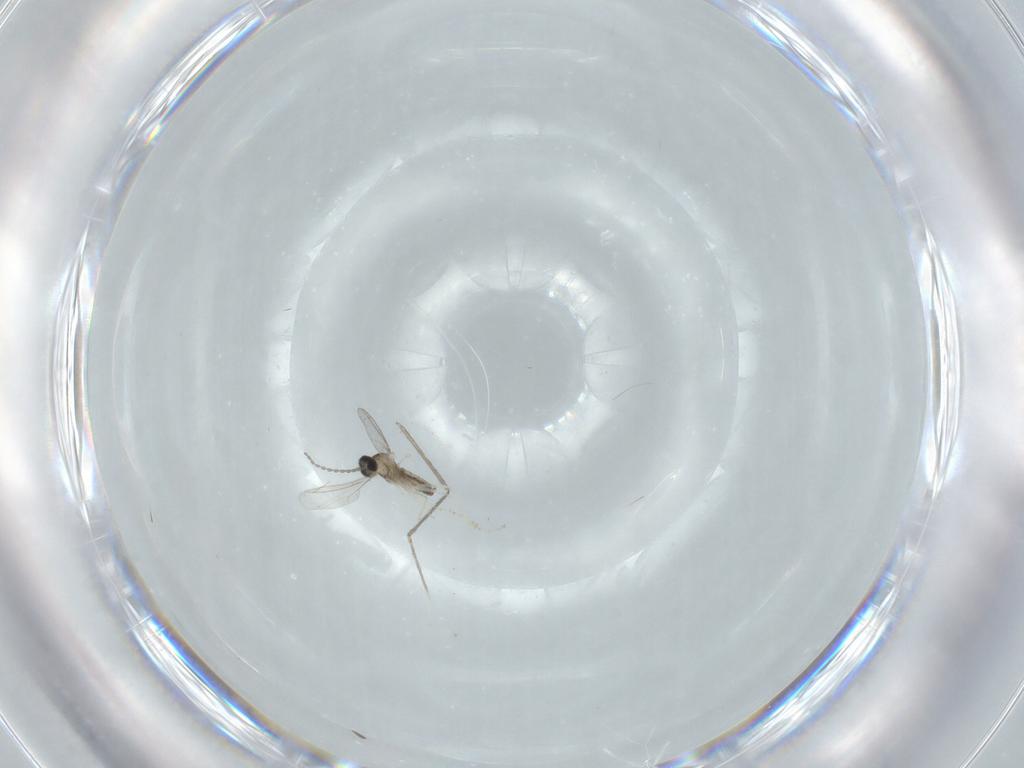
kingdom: Animalia
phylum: Arthropoda
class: Insecta
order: Diptera
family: Cecidomyiidae
